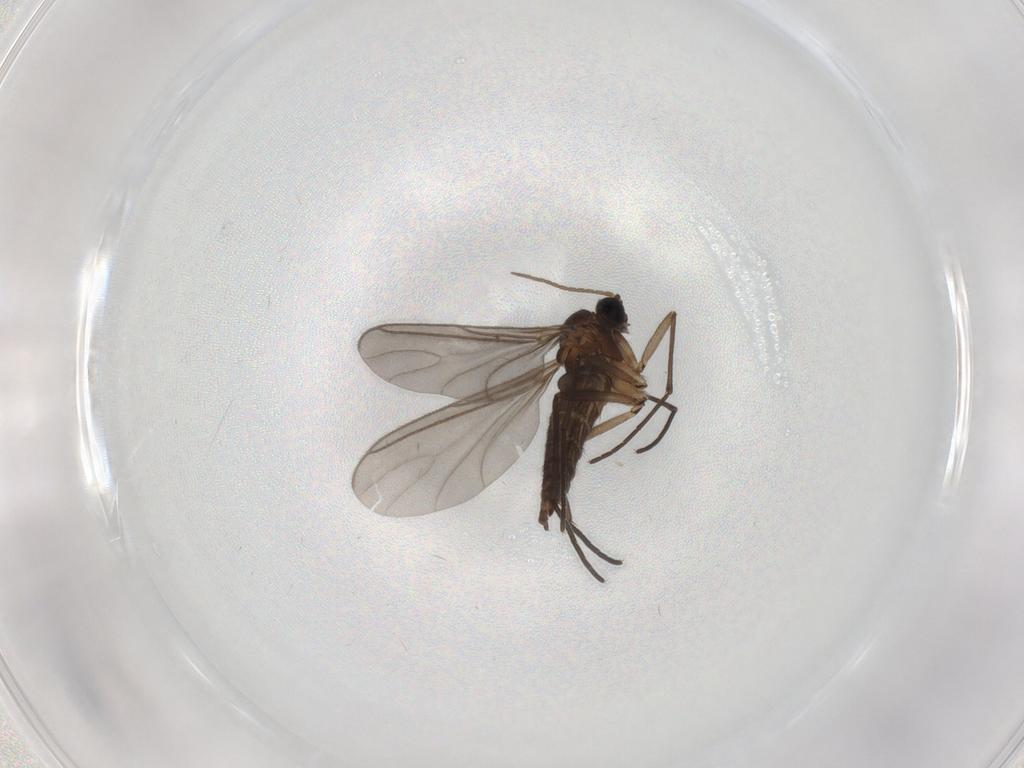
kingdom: Animalia
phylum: Arthropoda
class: Insecta
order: Diptera
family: Sciaridae
